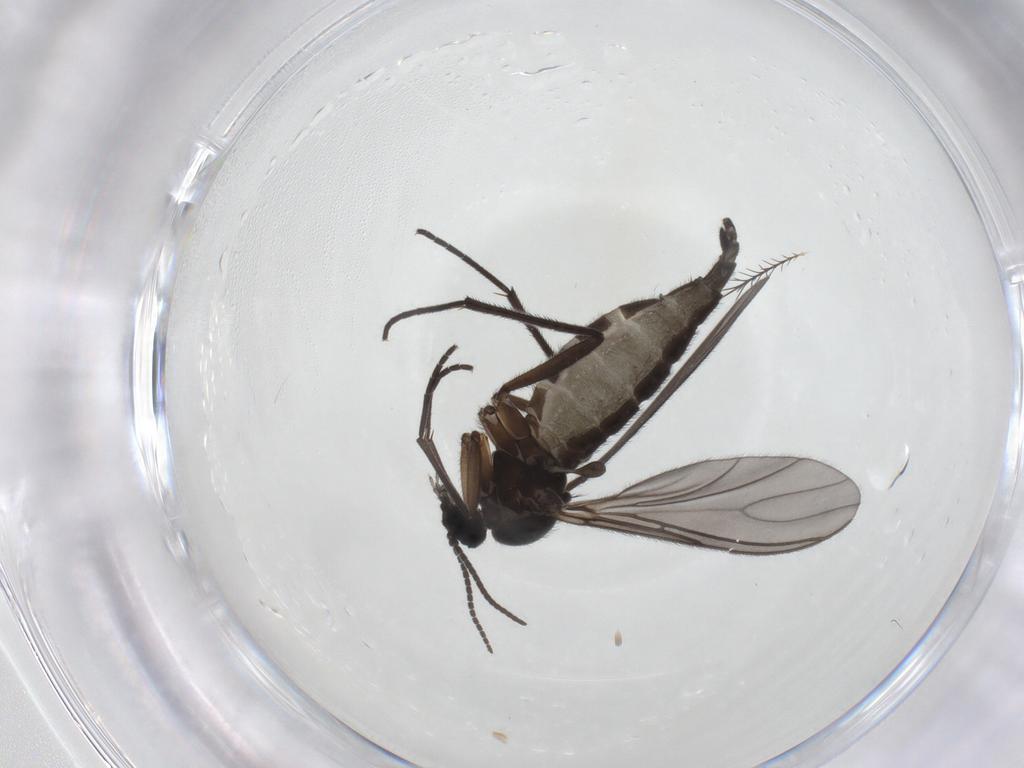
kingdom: Animalia
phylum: Arthropoda
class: Insecta
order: Diptera
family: Sciaridae
